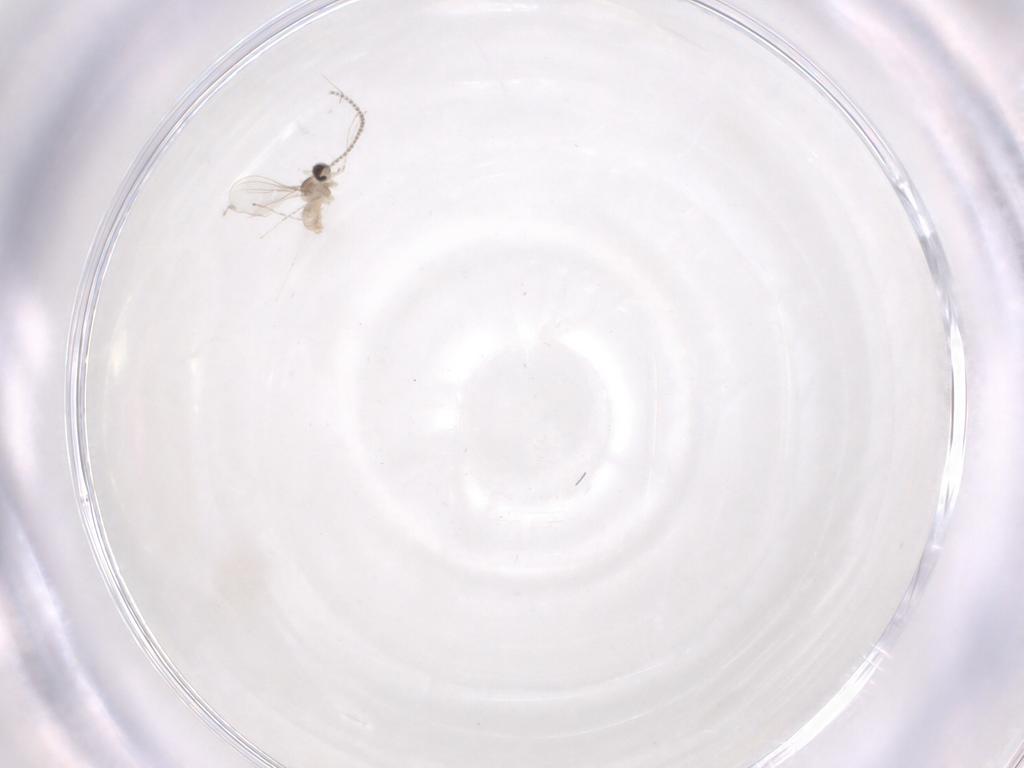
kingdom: Animalia
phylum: Arthropoda
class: Insecta
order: Diptera
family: Cecidomyiidae
